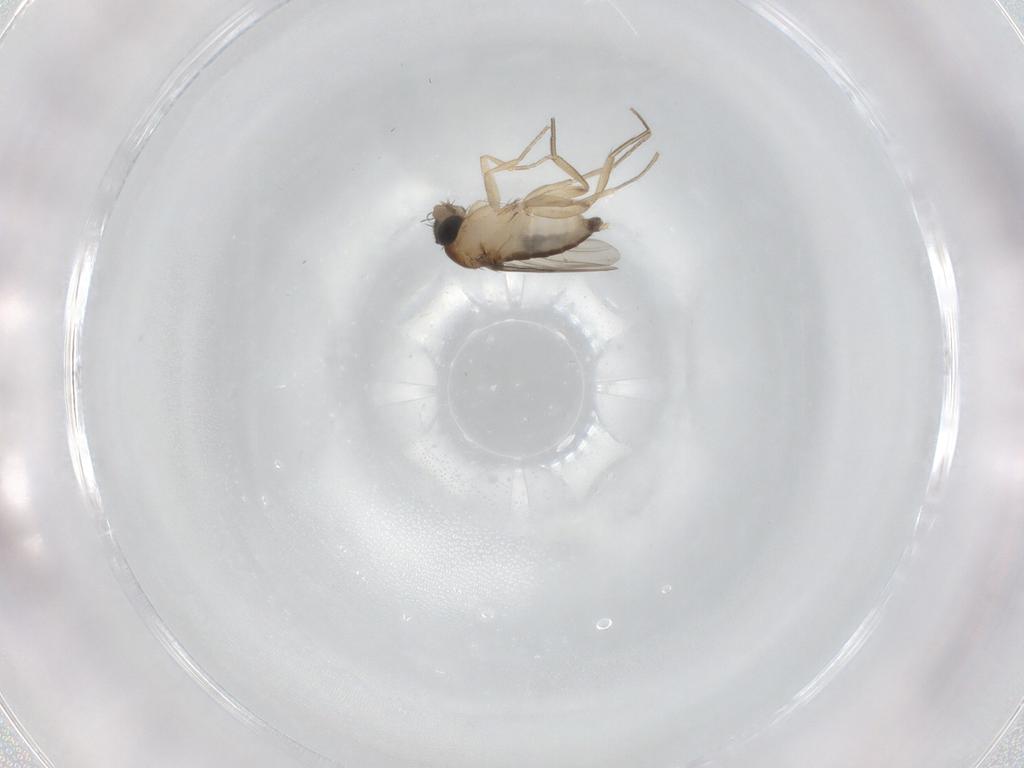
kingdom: Animalia
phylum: Arthropoda
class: Insecta
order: Diptera
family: Phoridae
